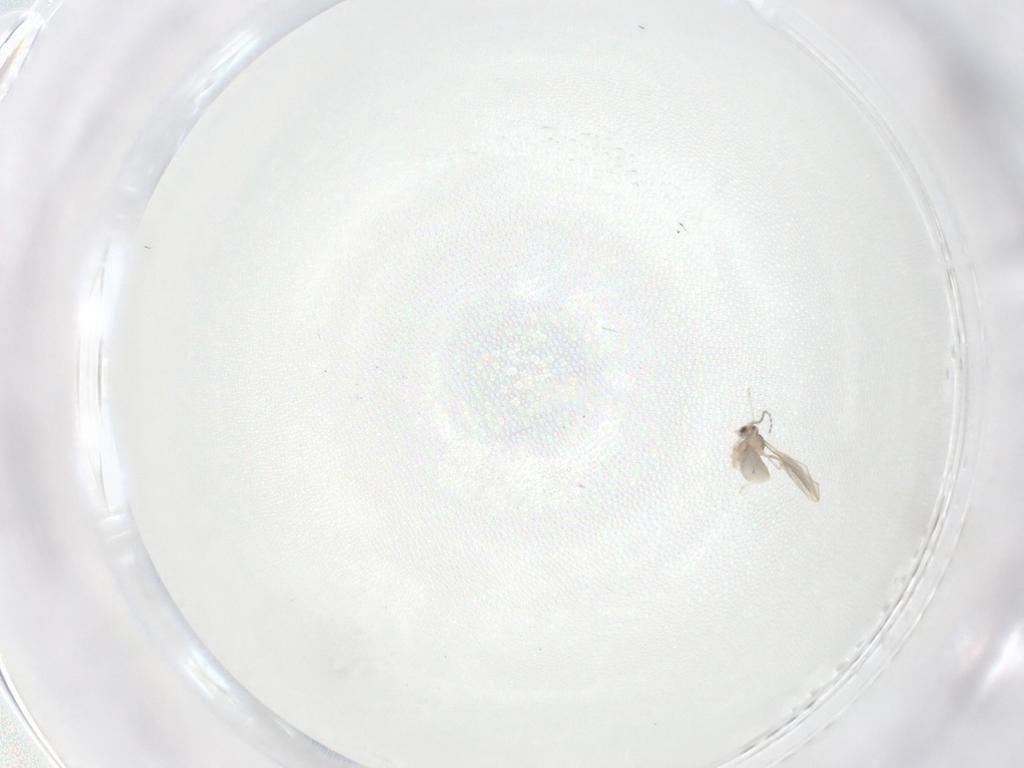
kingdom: Animalia
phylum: Arthropoda
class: Insecta
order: Diptera
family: Cecidomyiidae
